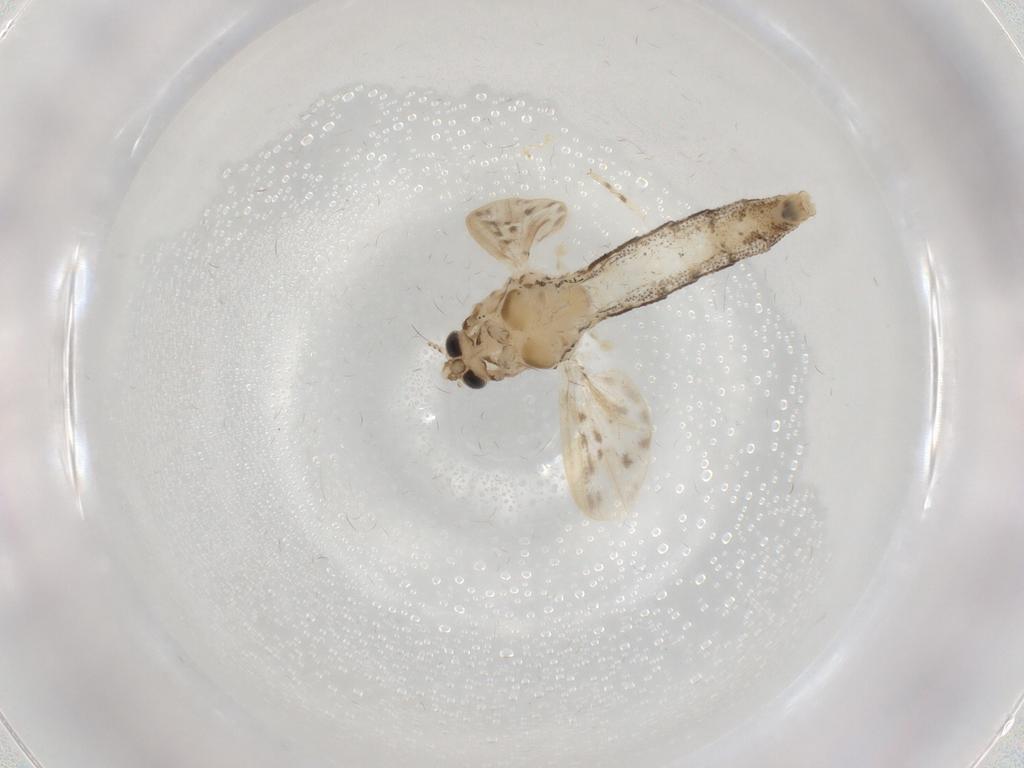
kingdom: Animalia
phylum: Arthropoda
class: Insecta
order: Diptera
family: Chaoboridae
